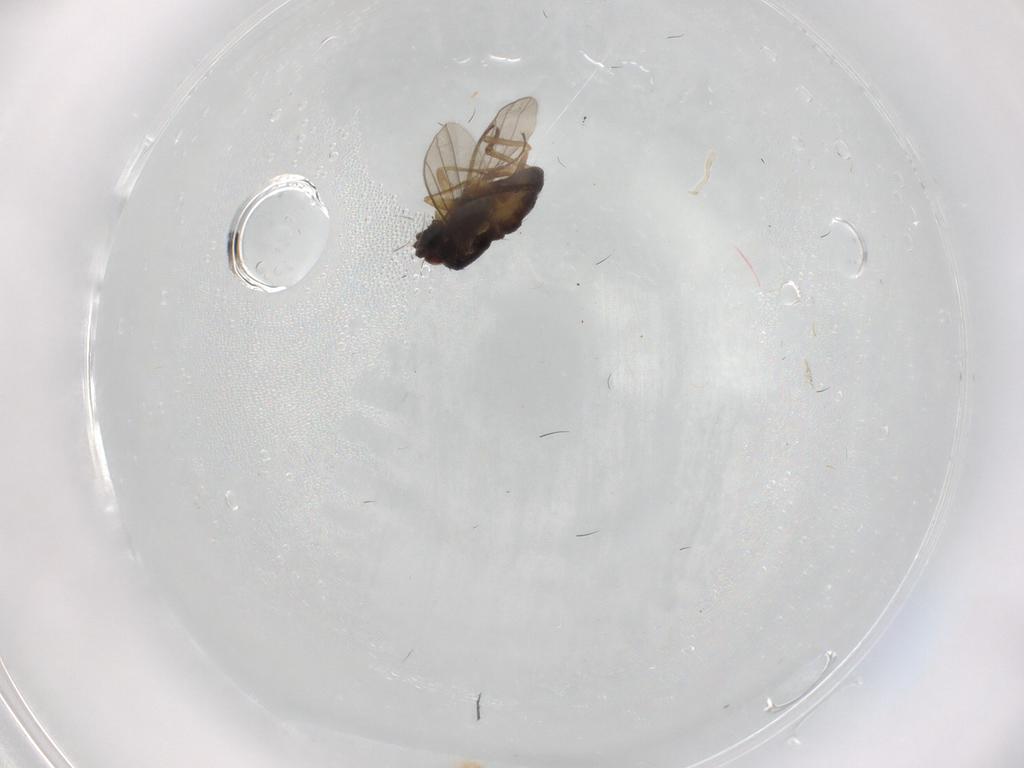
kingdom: Animalia
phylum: Arthropoda
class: Insecta
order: Diptera
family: Dolichopodidae
